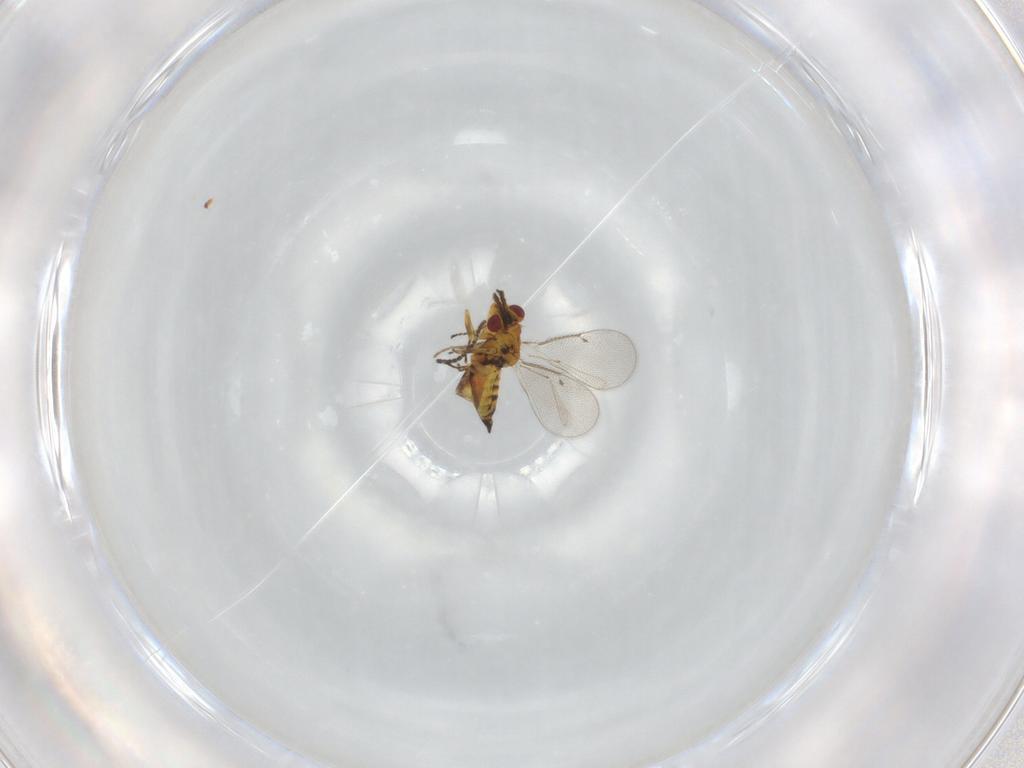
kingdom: Animalia
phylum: Arthropoda
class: Insecta
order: Hymenoptera
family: Eulophidae
